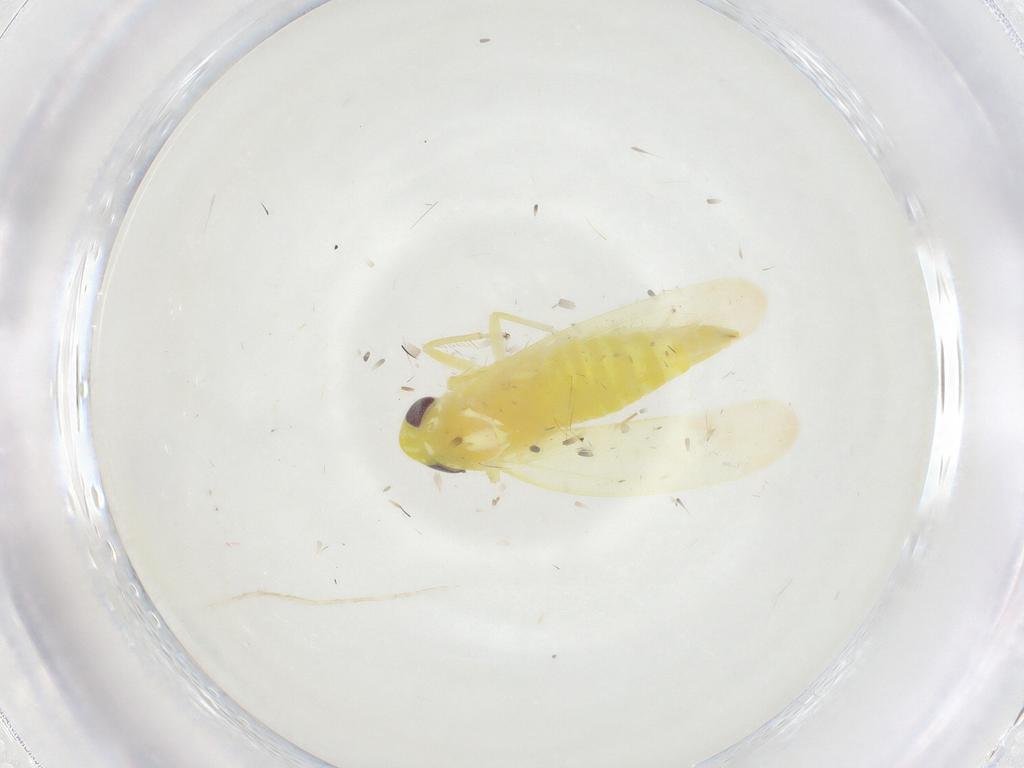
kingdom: Animalia
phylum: Arthropoda
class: Insecta
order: Hemiptera
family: Cicadellidae
